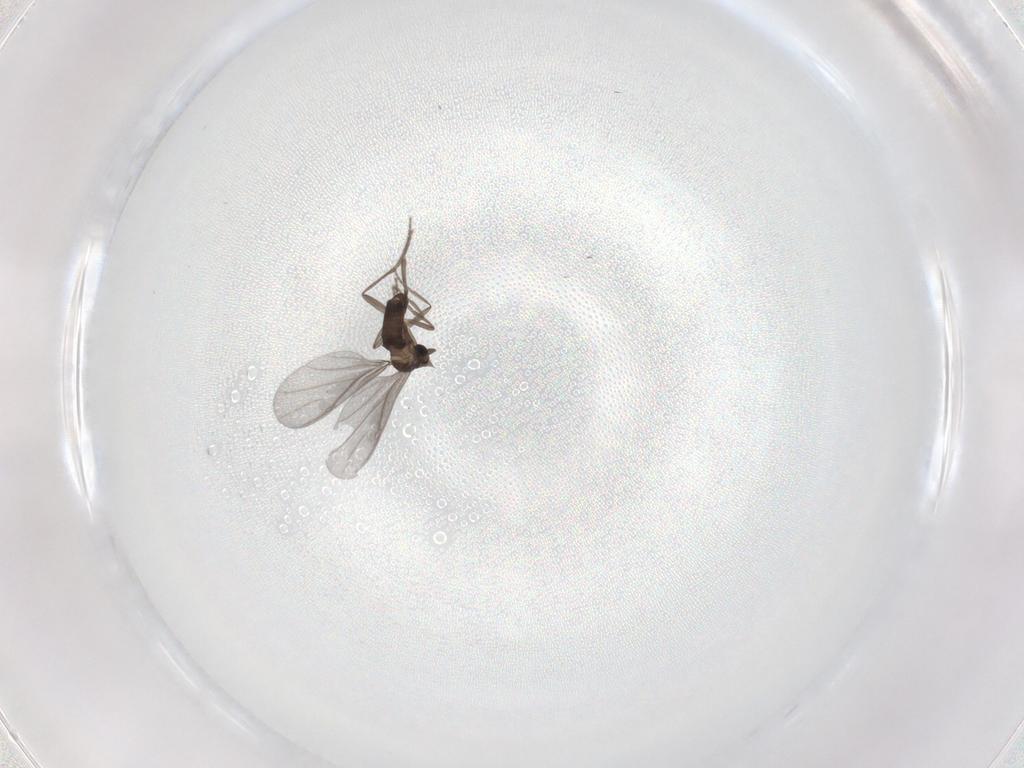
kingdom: Animalia
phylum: Arthropoda
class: Insecta
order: Diptera
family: Phoridae
